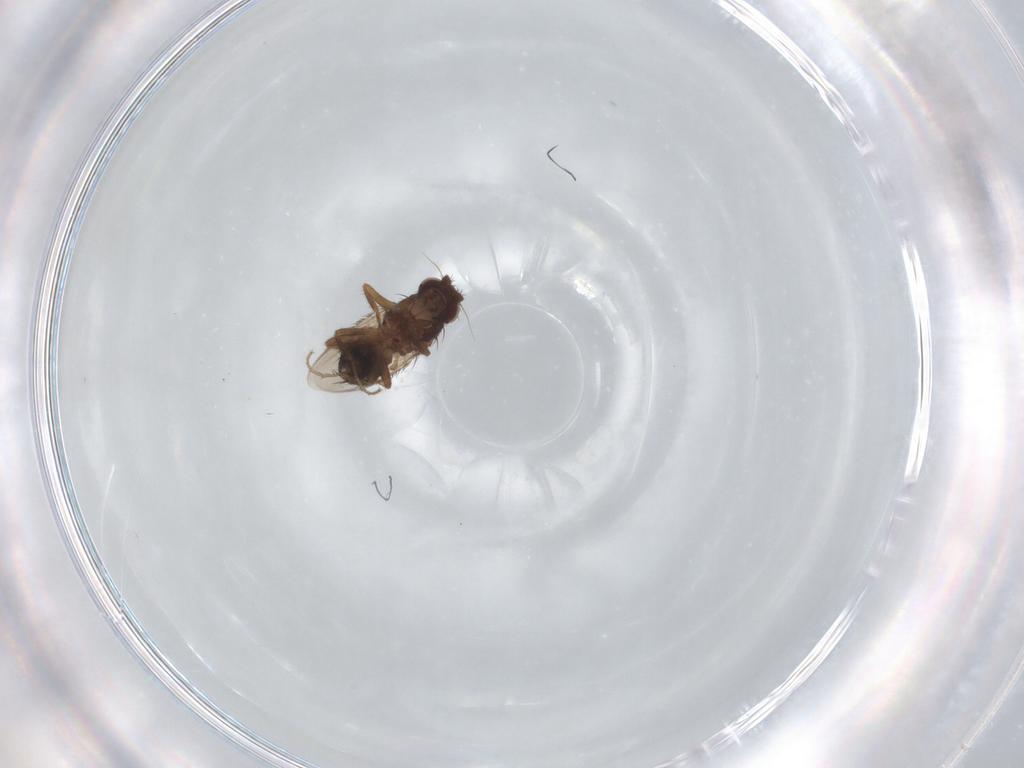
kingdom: Animalia
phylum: Arthropoda
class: Insecta
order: Diptera
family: Sphaeroceridae
